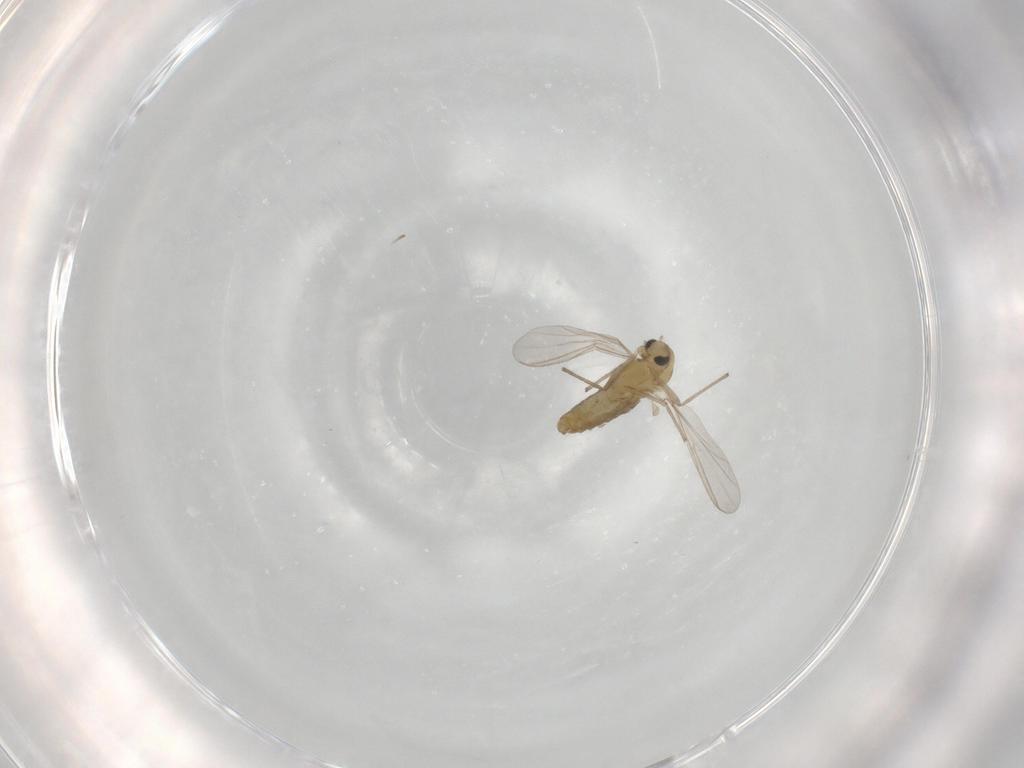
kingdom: Animalia
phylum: Arthropoda
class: Insecta
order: Diptera
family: Chironomidae
